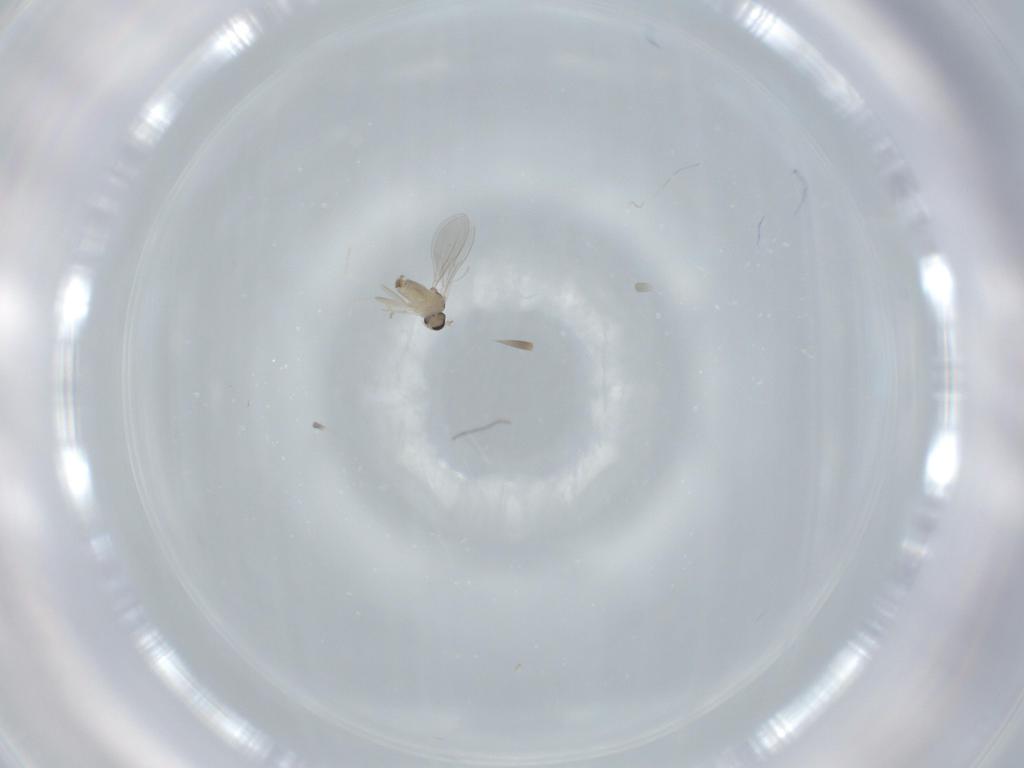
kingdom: Animalia
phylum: Arthropoda
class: Insecta
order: Diptera
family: Cecidomyiidae
